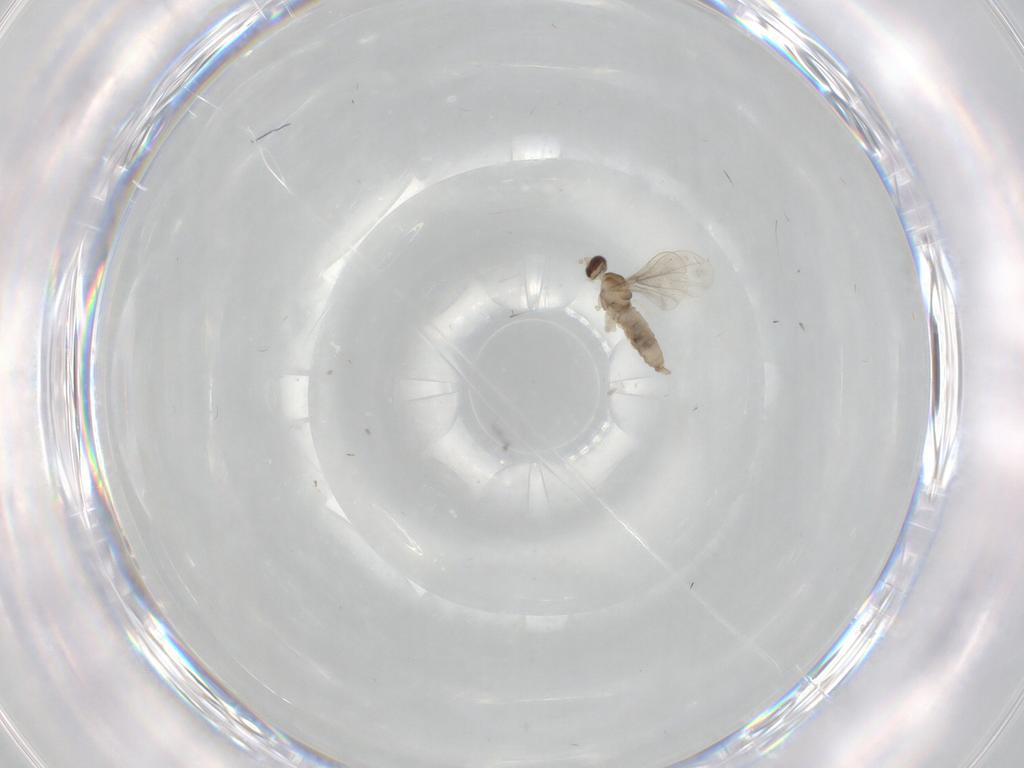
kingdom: Animalia
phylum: Arthropoda
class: Insecta
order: Diptera
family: Cecidomyiidae
